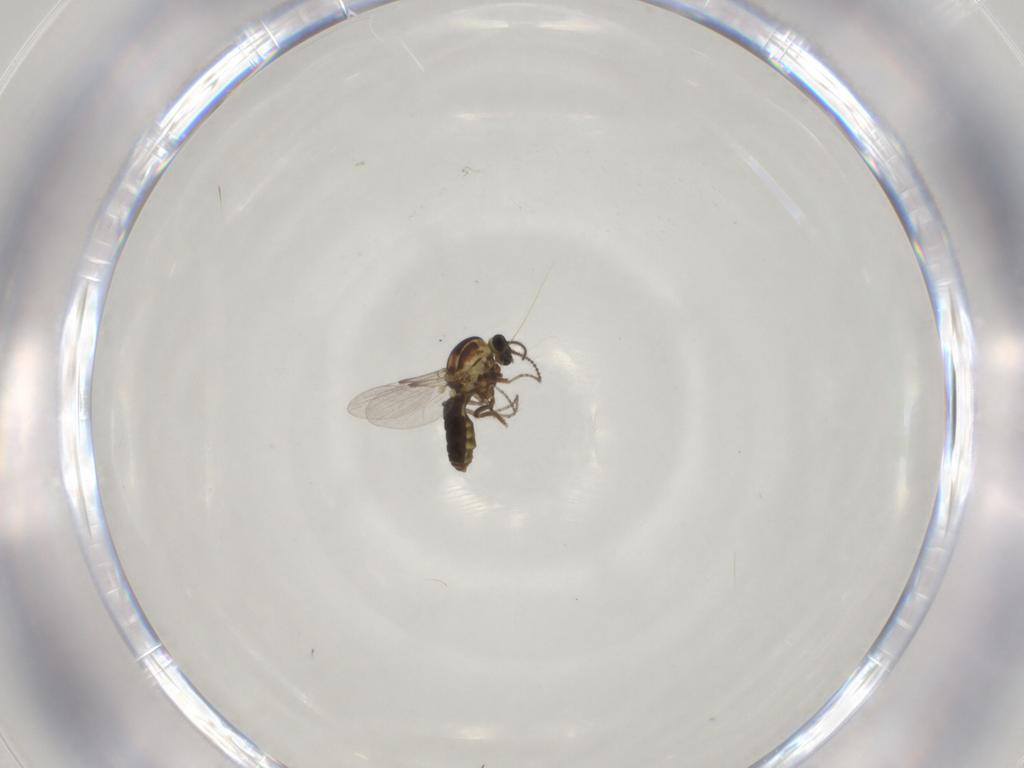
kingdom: Animalia
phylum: Arthropoda
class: Insecta
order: Diptera
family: Ceratopogonidae
